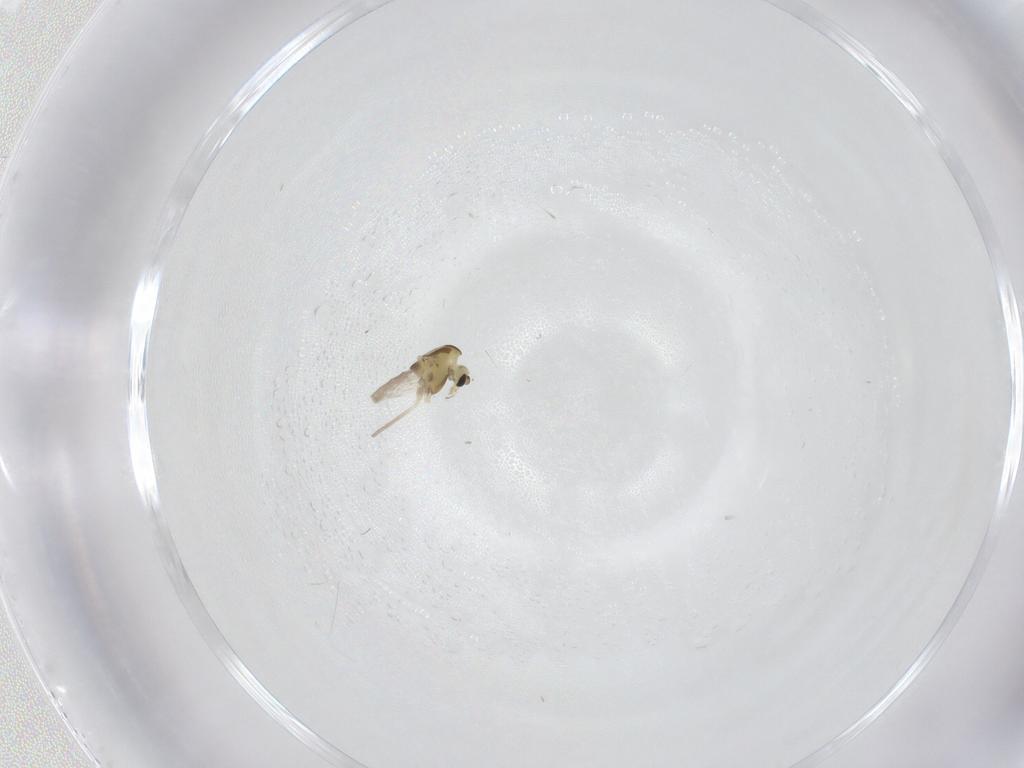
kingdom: Animalia
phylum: Arthropoda
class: Insecta
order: Diptera
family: Chironomidae
